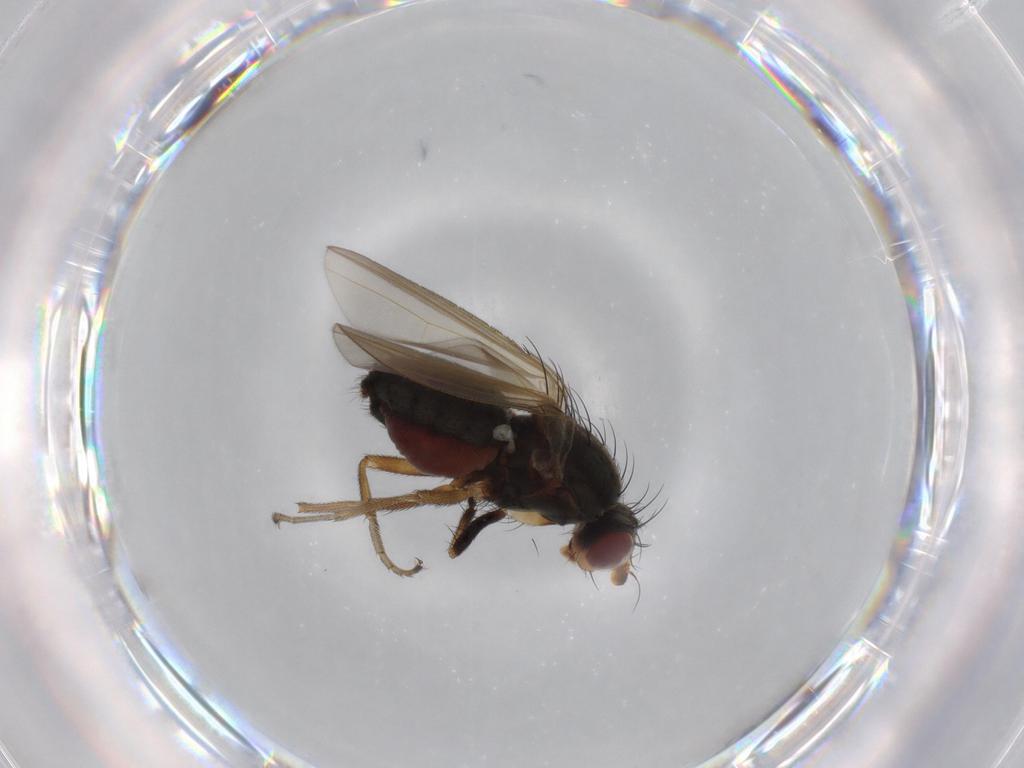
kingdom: Animalia
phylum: Arthropoda
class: Insecta
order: Diptera
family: Ulidiidae
